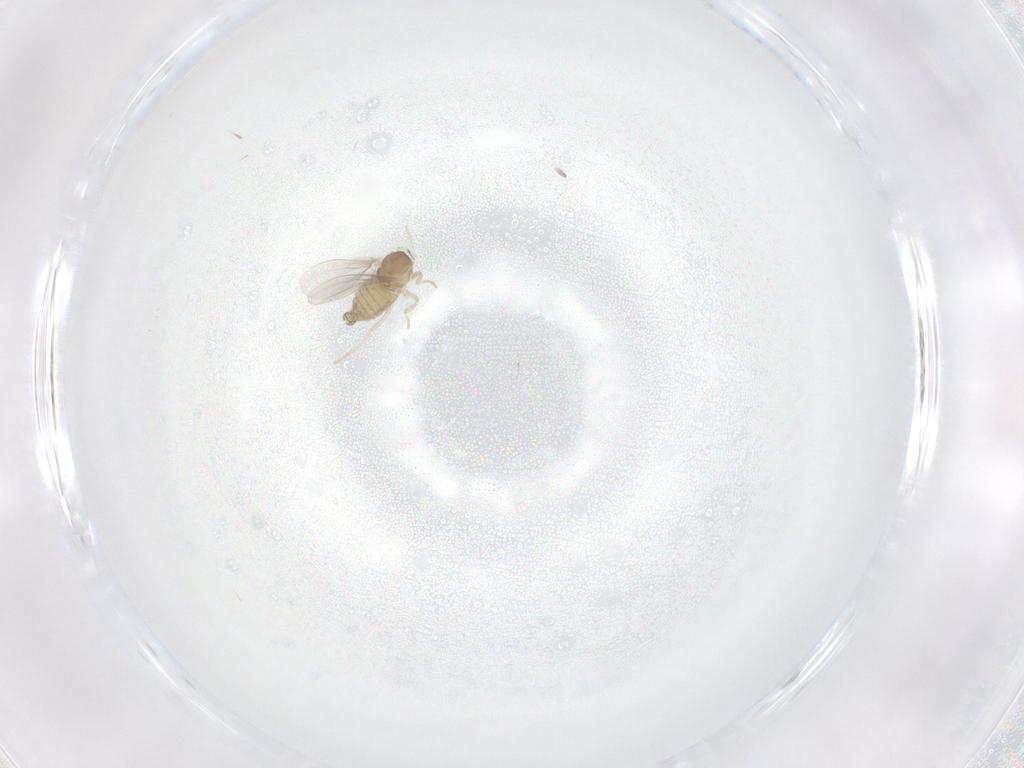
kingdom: Animalia
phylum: Arthropoda
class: Insecta
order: Diptera
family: Cecidomyiidae
